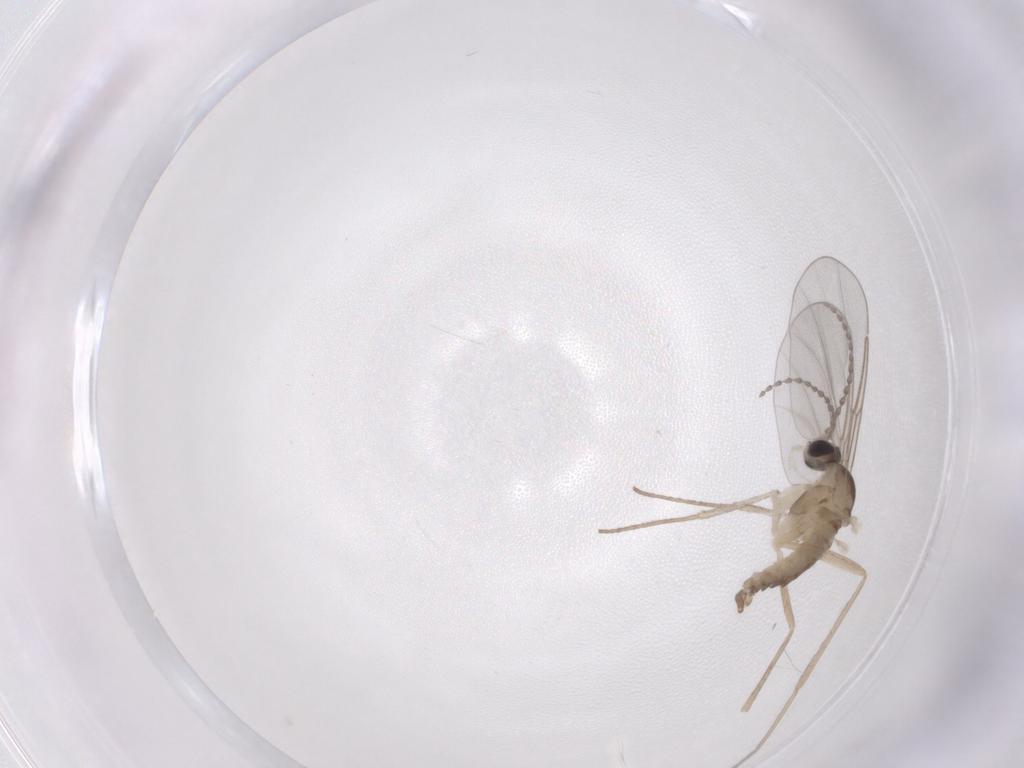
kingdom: Animalia
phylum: Arthropoda
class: Insecta
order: Diptera
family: Cecidomyiidae
